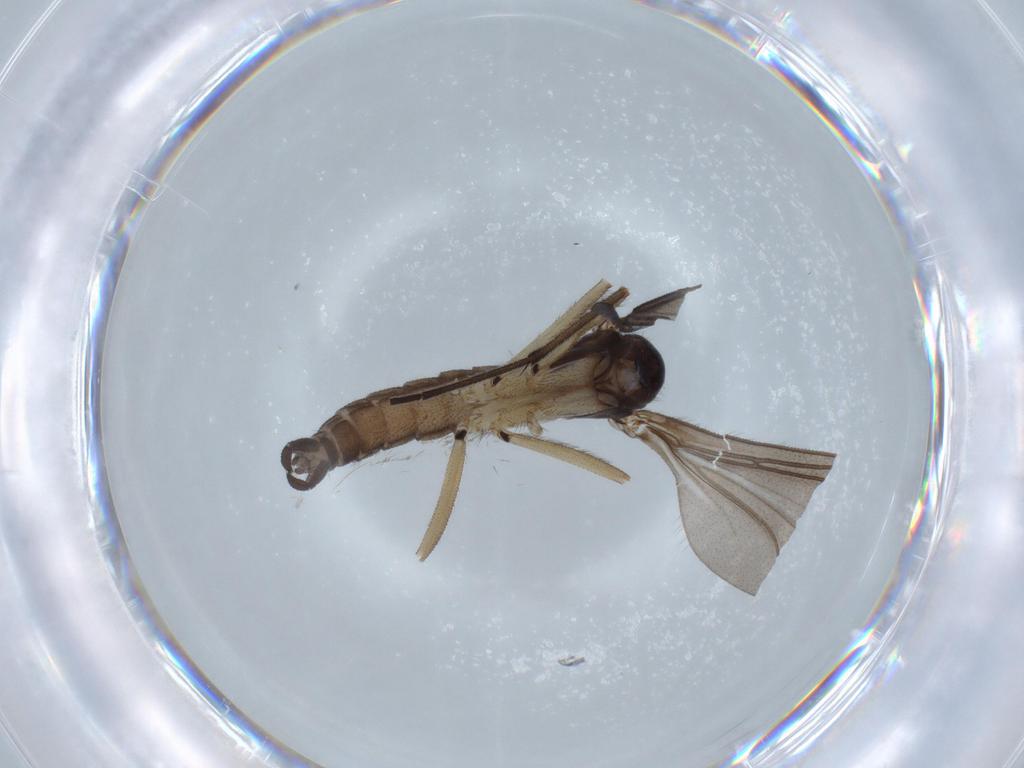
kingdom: Animalia
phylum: Arthropoda
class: Insecta
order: Diptera
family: Sciaridae
